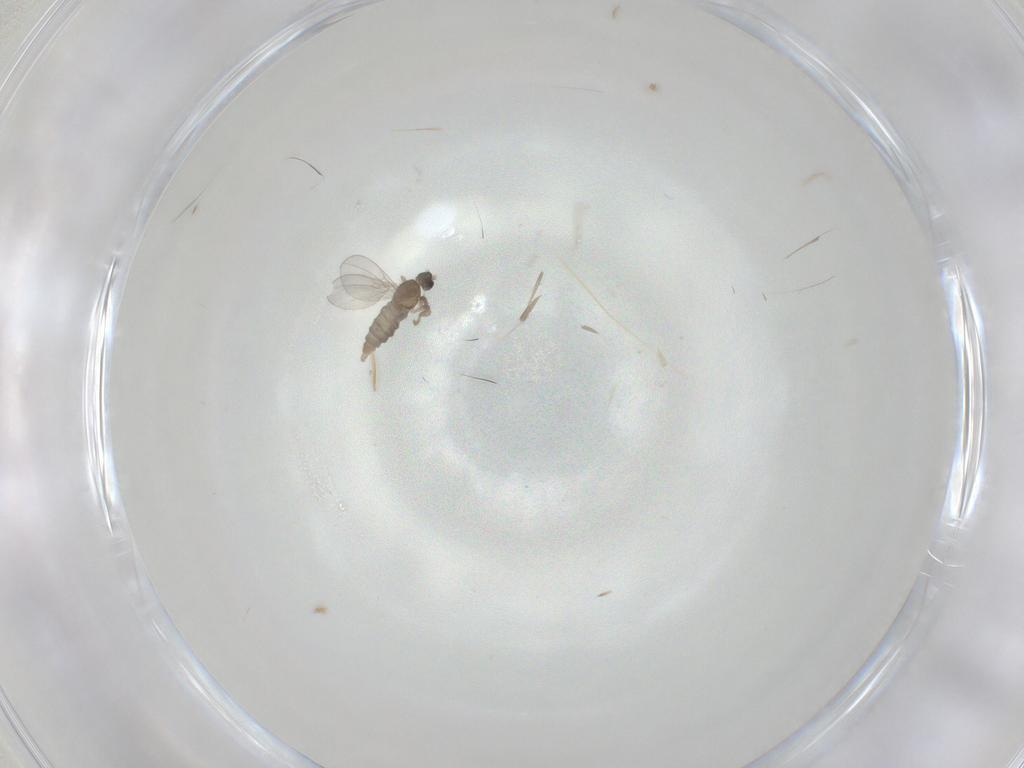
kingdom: Animalia
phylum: Arthropoda
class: Insecta
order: Diptera
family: Cecidomyiidae
